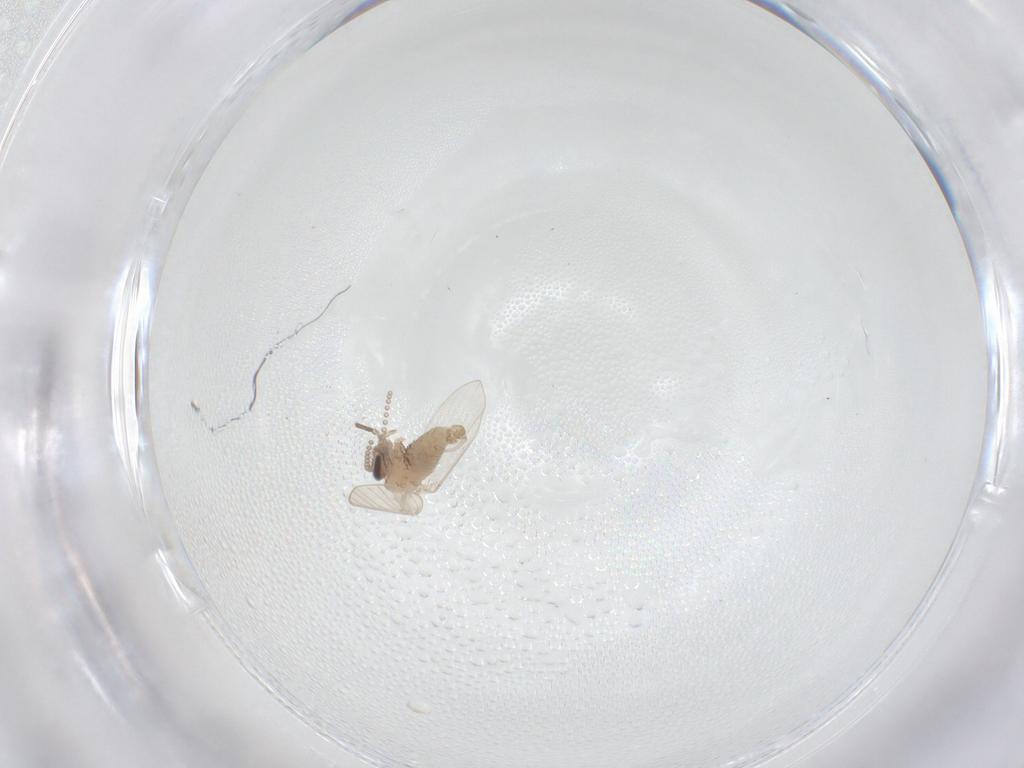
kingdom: Animalia
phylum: Arthropoda
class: Insecta
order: Diptera
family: Psychodidae
